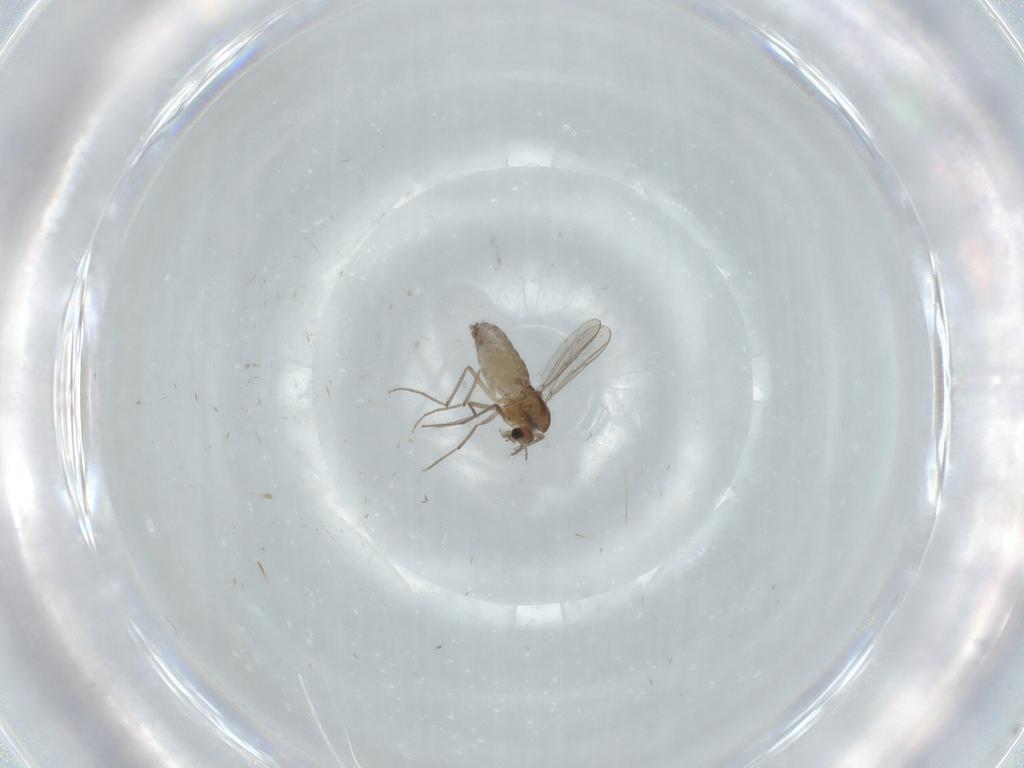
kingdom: Animalia
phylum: Arthropoda
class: Insecta
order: Diptera
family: Chironomidae
